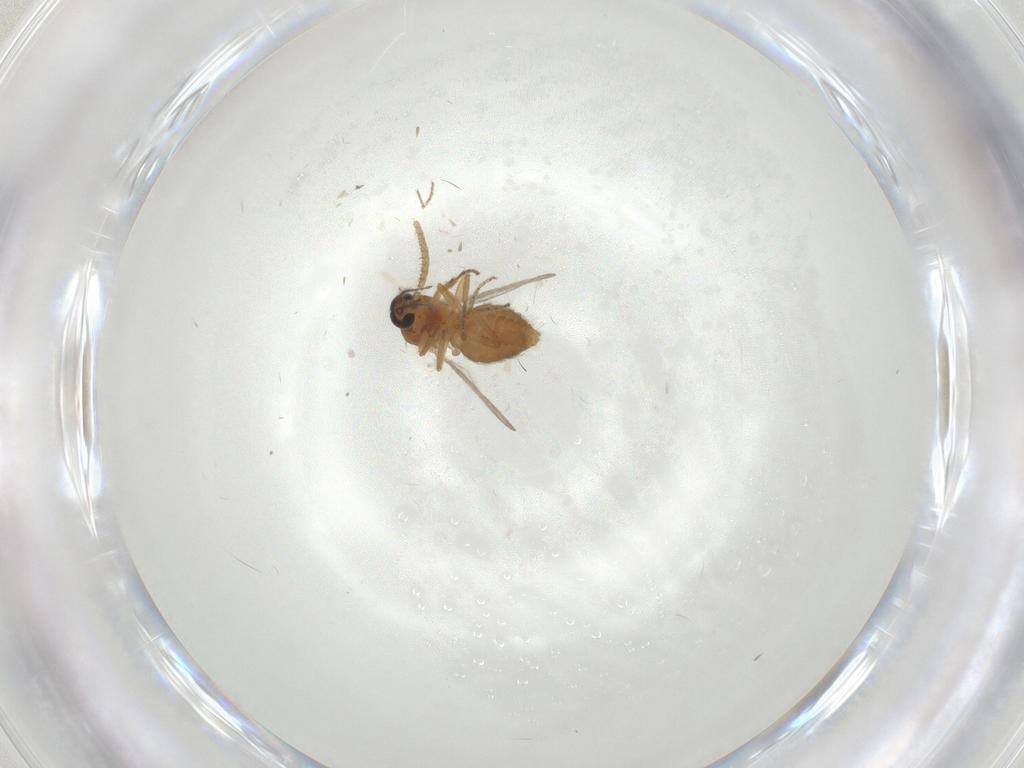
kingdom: Animalia
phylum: Arthropoda
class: Insecta
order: Diptera
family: Ceratopogonidae
